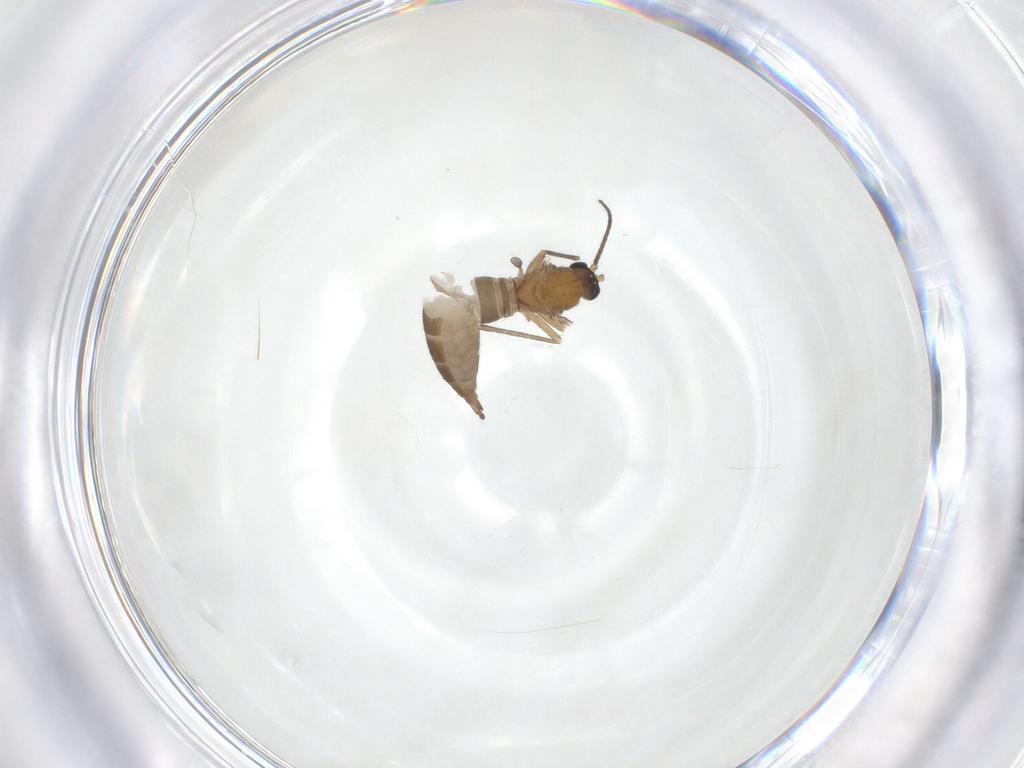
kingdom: Animalia
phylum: Arthropoda
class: Insecta
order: Diptera
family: Sciaridae
